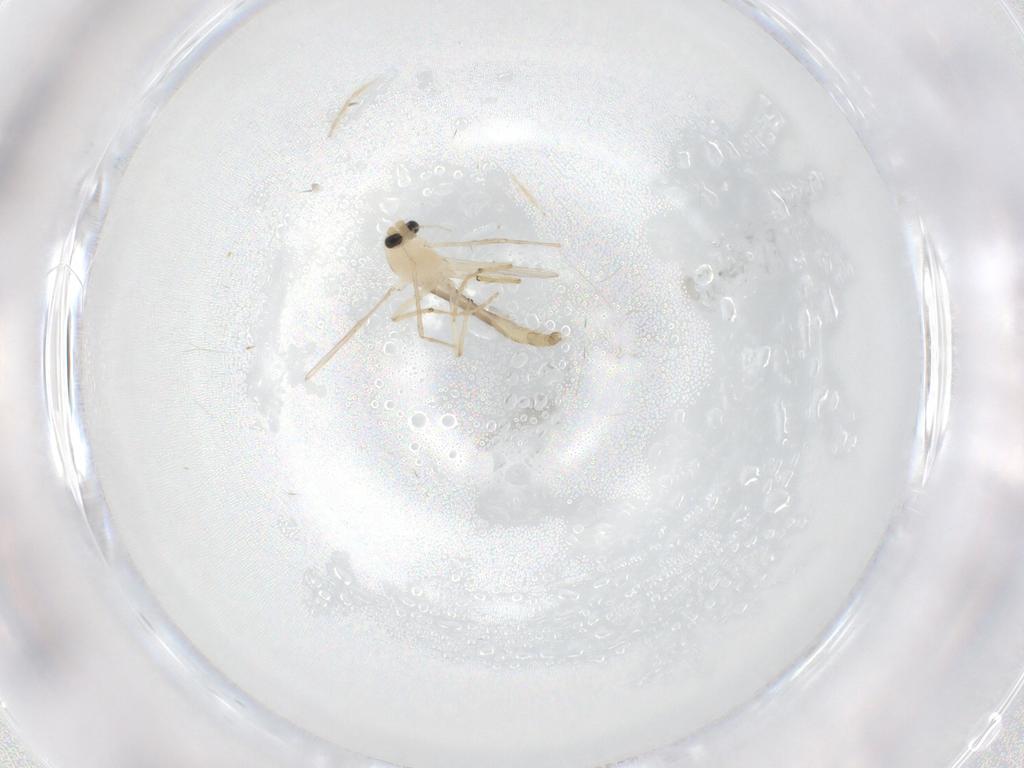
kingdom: Animalia
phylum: Arthropoda
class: Insecta
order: Diptera
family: Chironomidae
